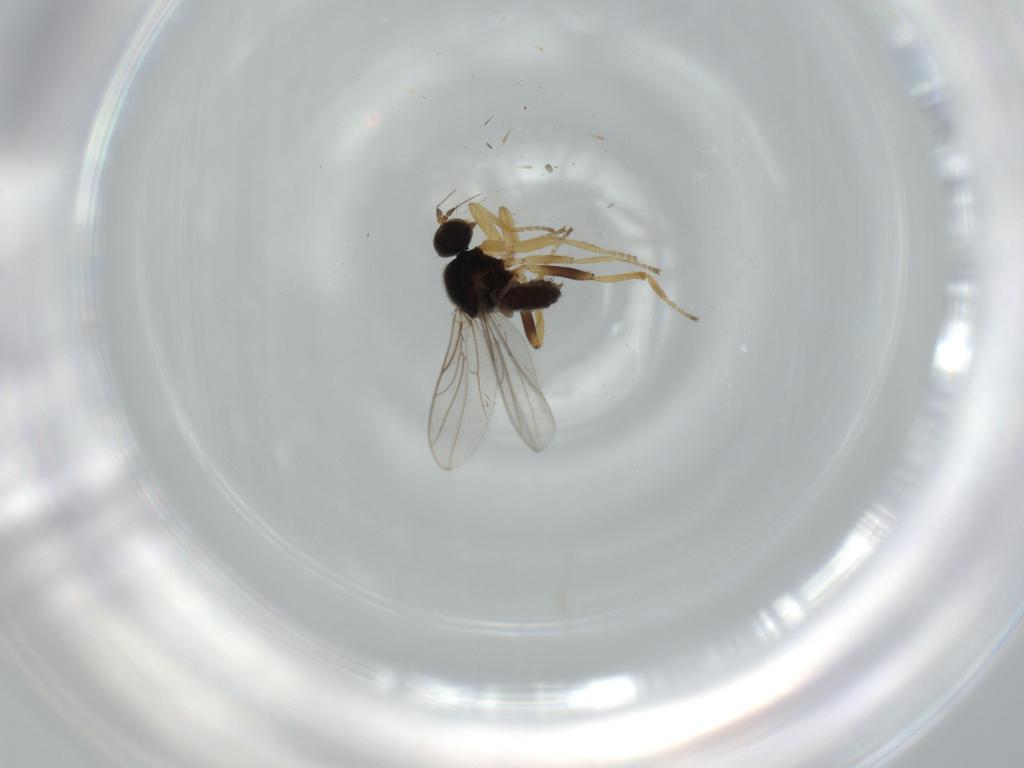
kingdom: Animalia
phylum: Arthropoda
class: Insecta
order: Diptera
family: Hybotidae
